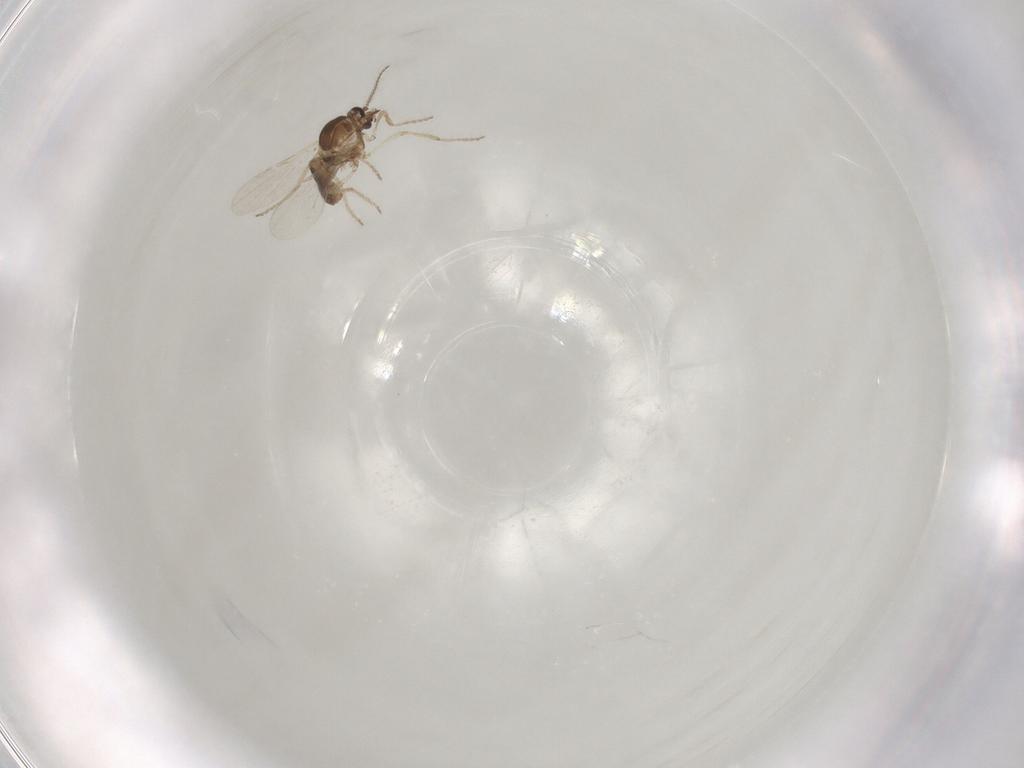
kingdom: Animalia
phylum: Arthropoda
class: Insecta
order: Diptera
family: Ceratopogonidae
